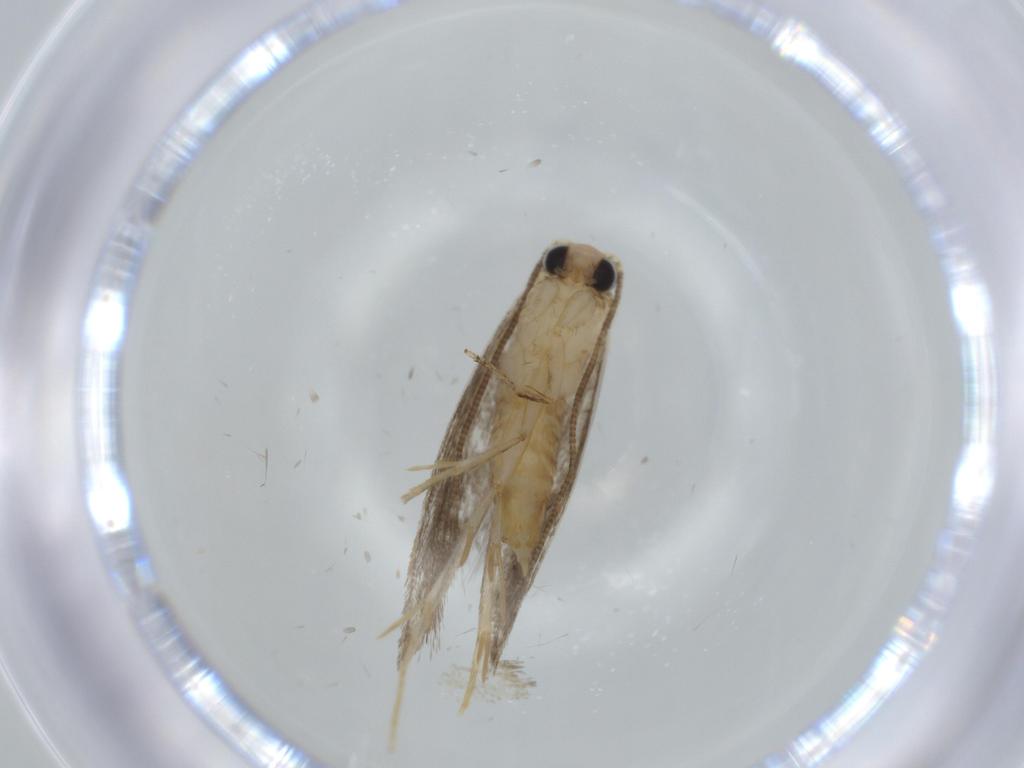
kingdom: Animalia
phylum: Arthropoda
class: Insecta
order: Lepidoptera
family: Tineidae
